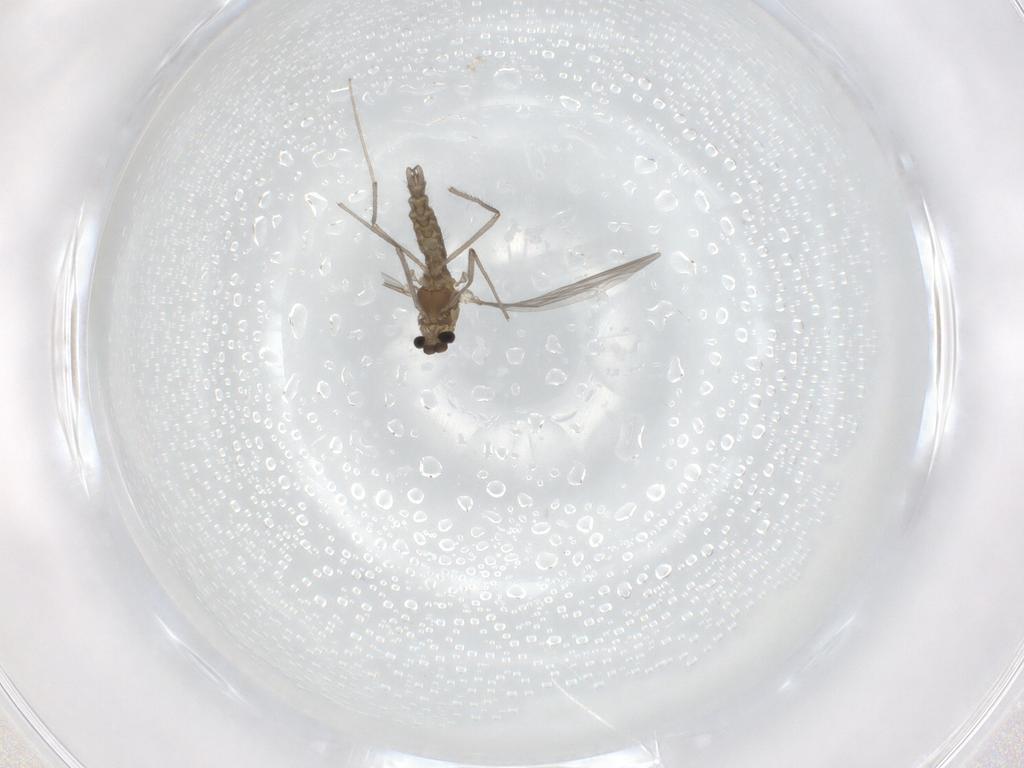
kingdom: Animalia
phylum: Arthropoda
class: Insecta
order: Diptera
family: Chironomidae
